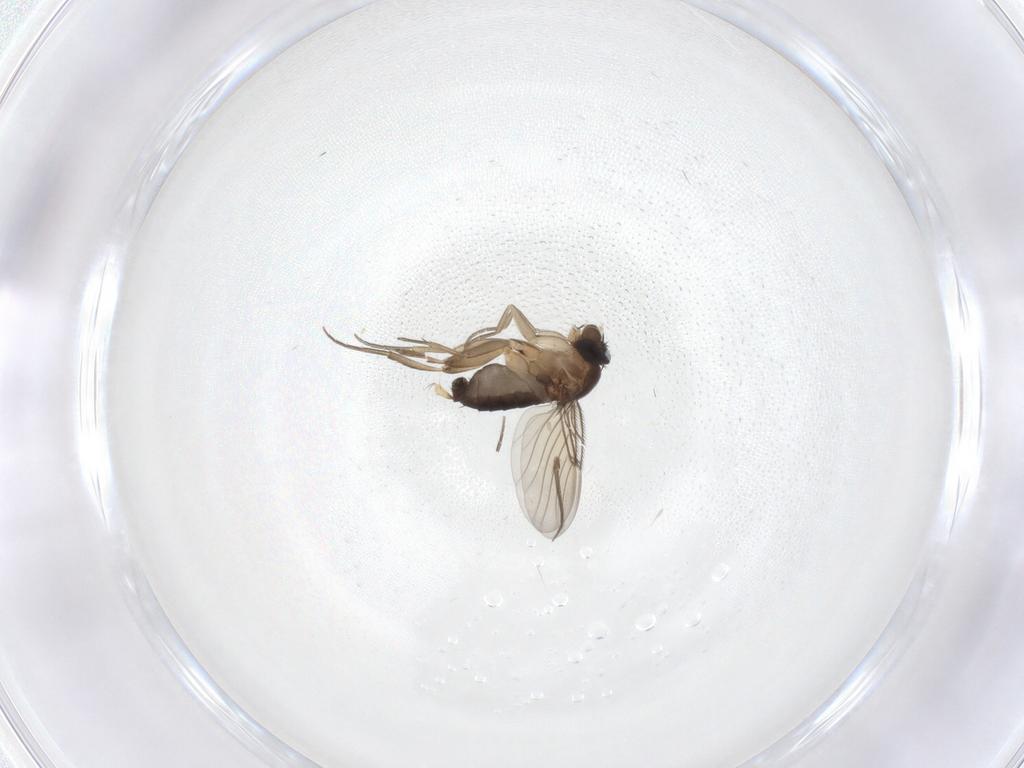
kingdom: Animalia
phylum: Arthropoda
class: Insecta
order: Diptera
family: Phoridae
